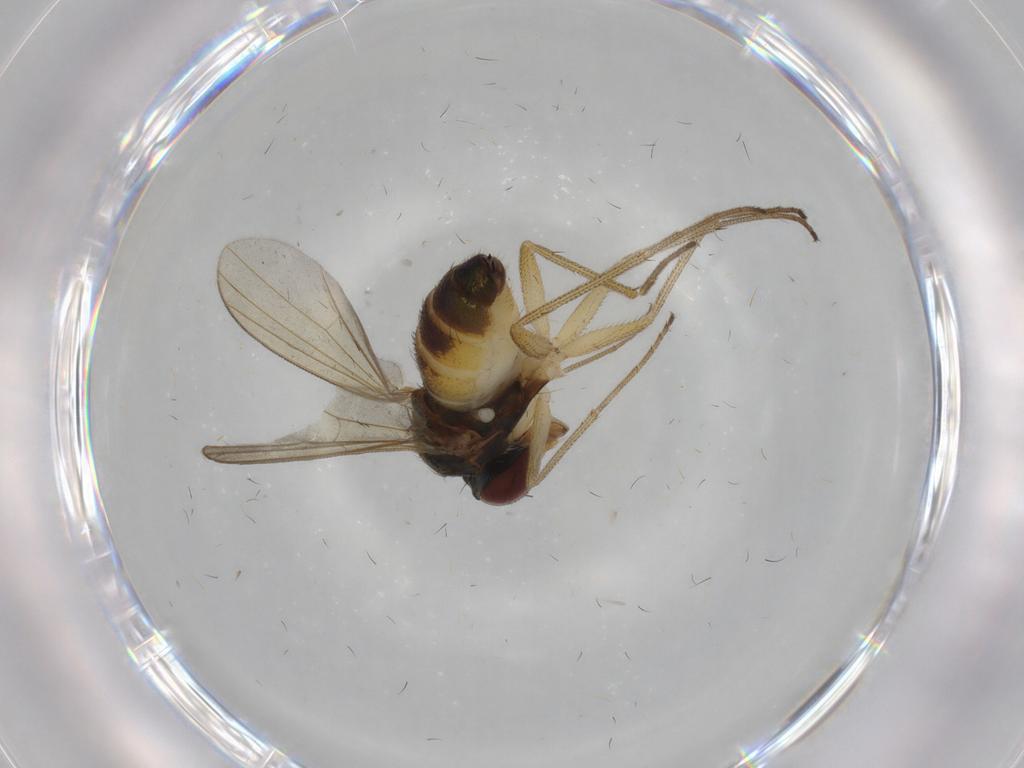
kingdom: Animalia
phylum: Arthropoda
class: Insecta
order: Diptera
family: Dolichopodidae
